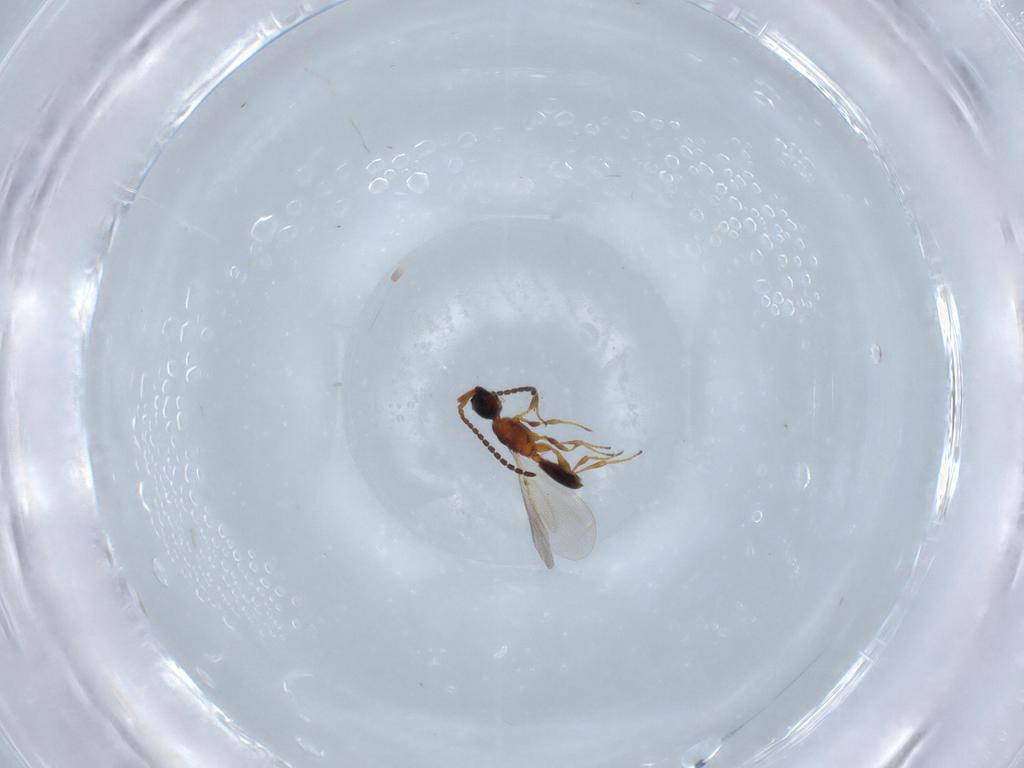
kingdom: Animalia
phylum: Arthropoda
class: Insecta
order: Hymenoptera
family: Diapriidae
